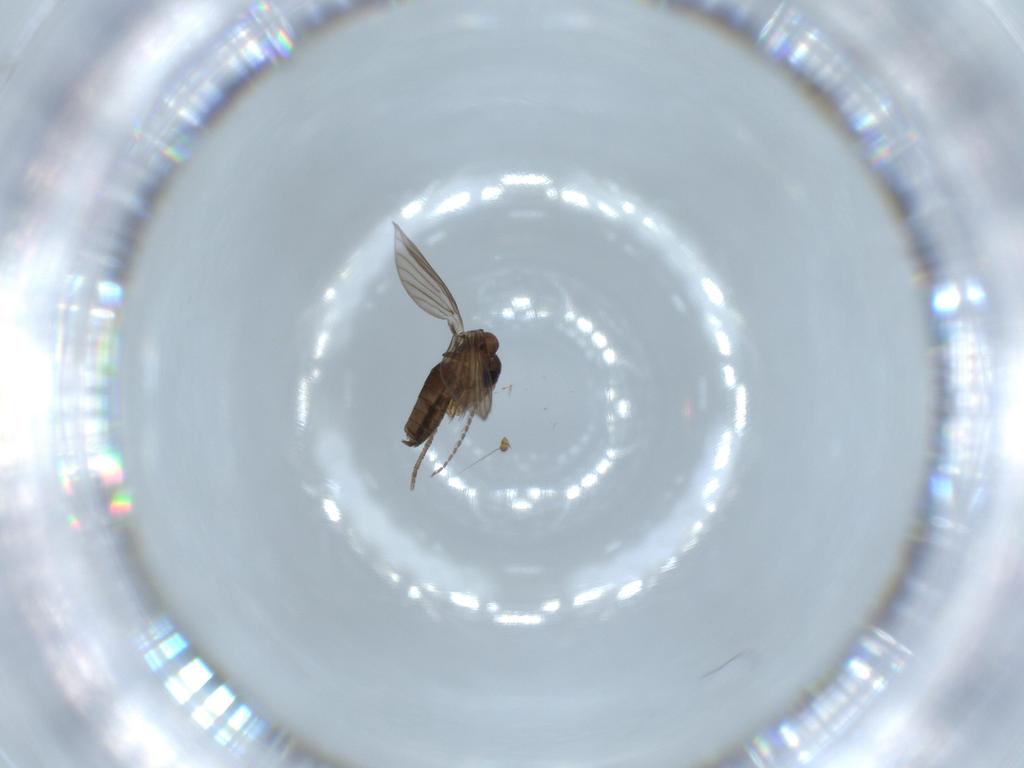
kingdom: Animalia
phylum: Arthropoda
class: Insecta
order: Diptera
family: Psychodidae
